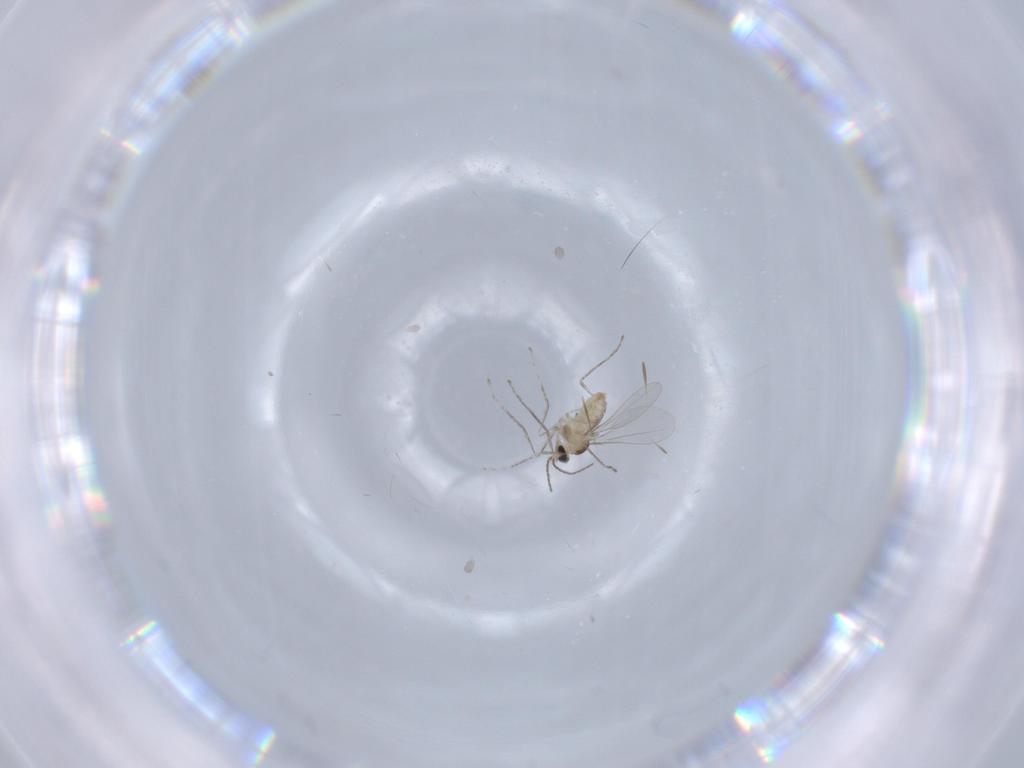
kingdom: Animalia
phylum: Arthropoda
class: Insecta
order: Diptera
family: Cecidomyiidae
